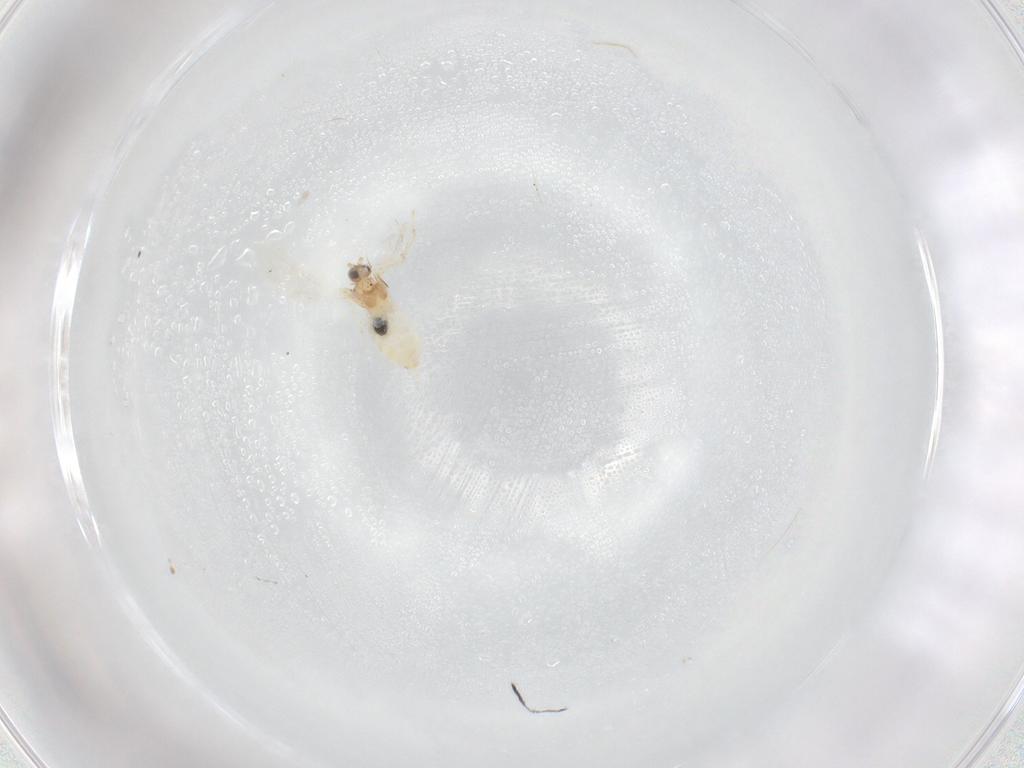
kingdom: Animalia
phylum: Arthropoda
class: Insecta
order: Diptera
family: Cecidomyiidae
